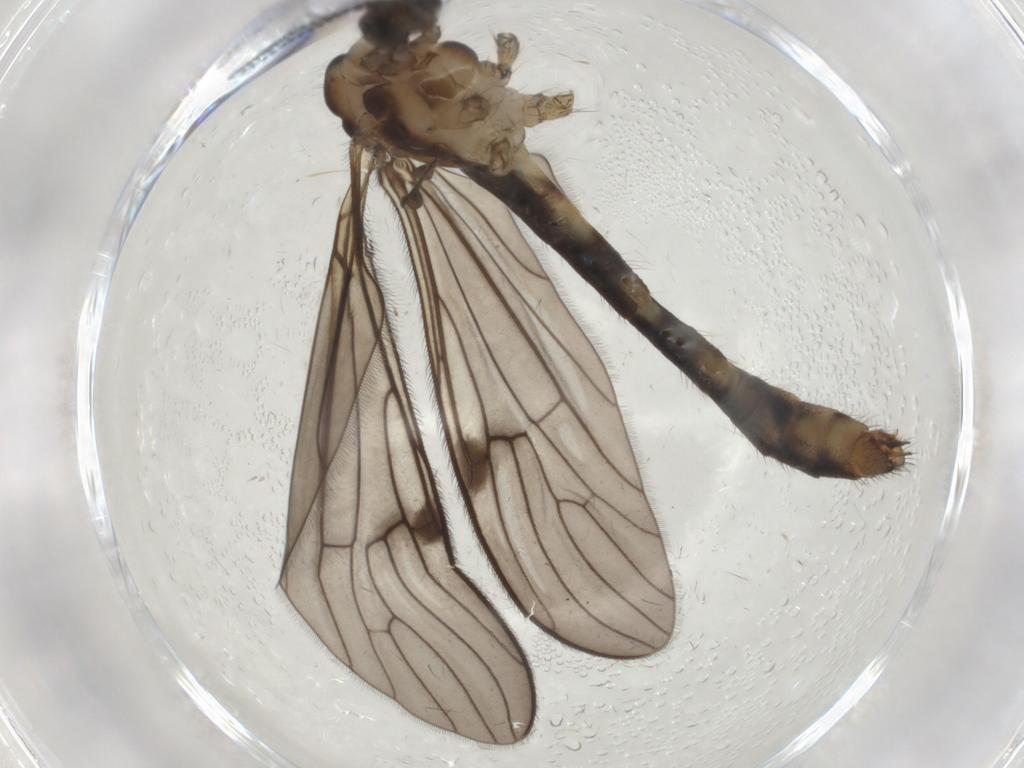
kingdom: Animalia
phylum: Arthropoda
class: Insecta
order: Diptera
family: Phoridae
